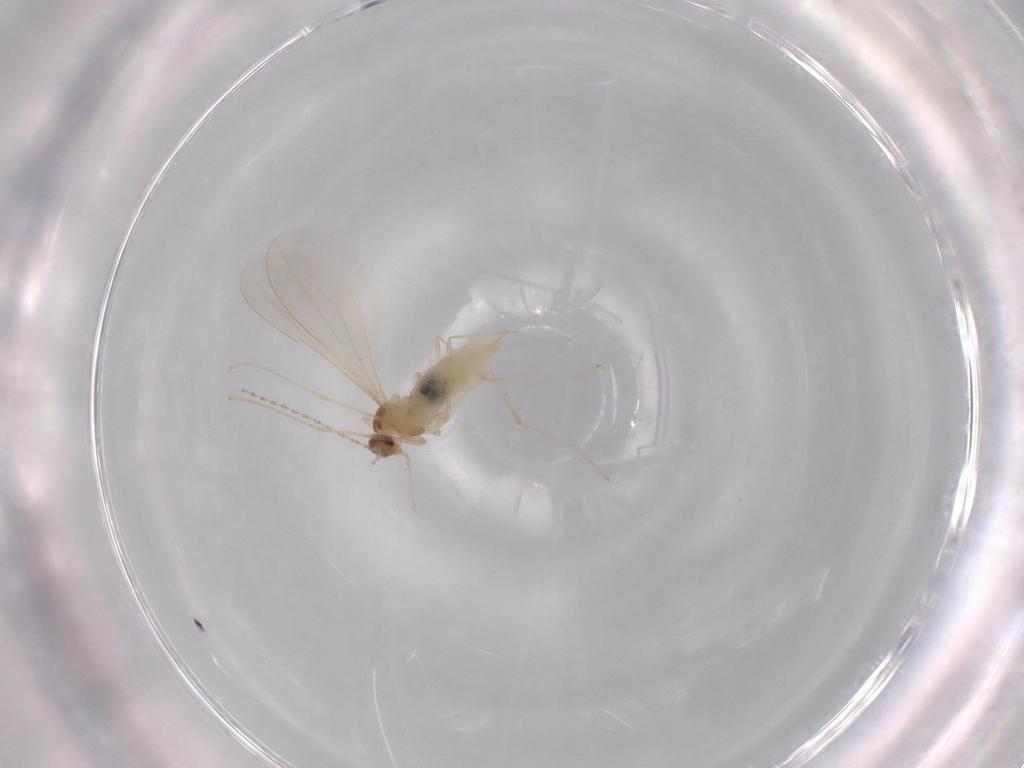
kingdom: Animalia
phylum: Arthropoda
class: Insecta
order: Diptera
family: Cecidomyiidae
